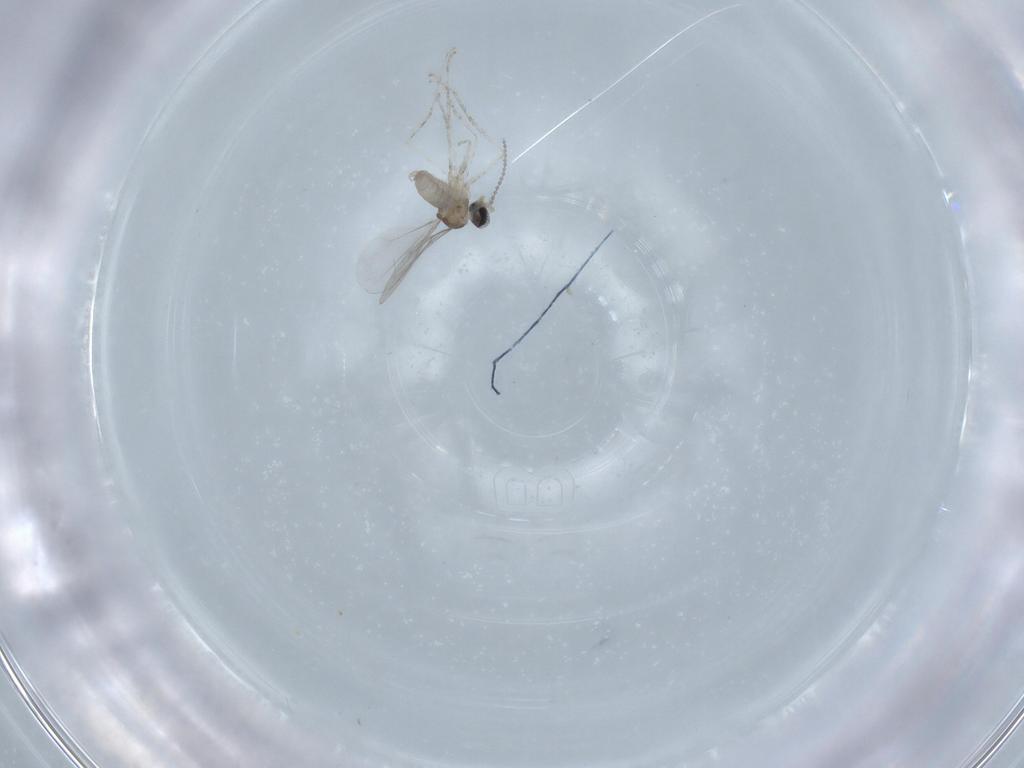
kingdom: Animalia
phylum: Arthropoda
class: Insecta
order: Diptera
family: Cecidomyiidae
